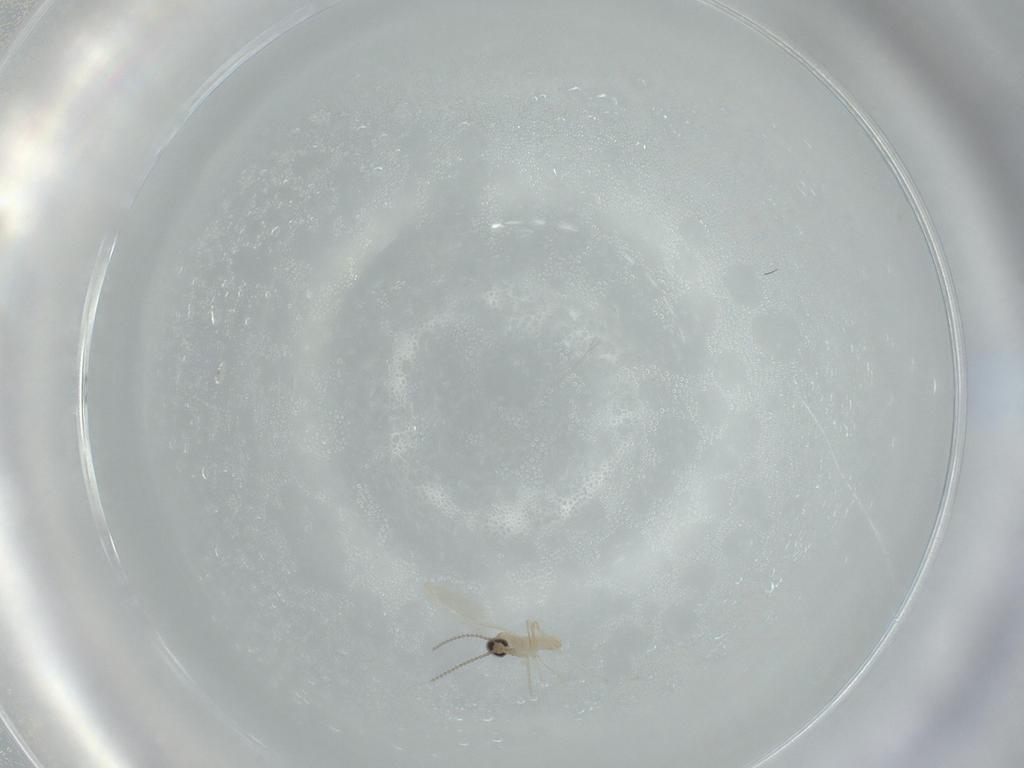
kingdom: Animalia
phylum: Arthropoda
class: Insecta
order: Diptera
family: Cecidomyiidae
